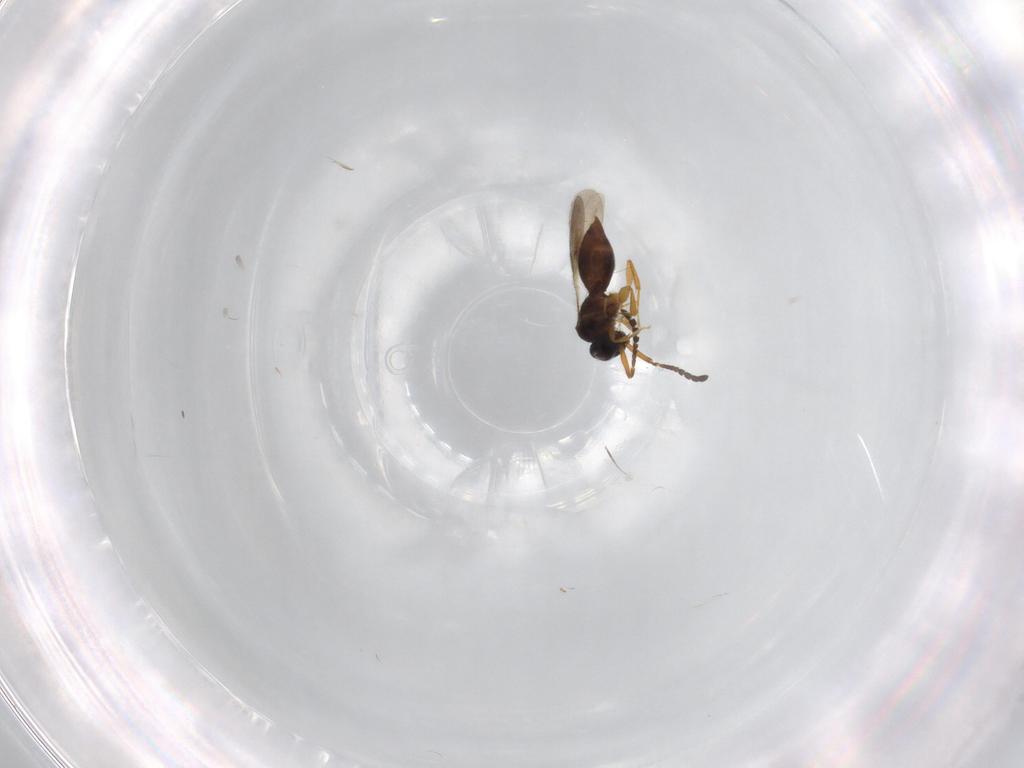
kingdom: Animalia
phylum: Arthropoda
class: Insecta
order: Hymenoptera
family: Ceraphronidae
